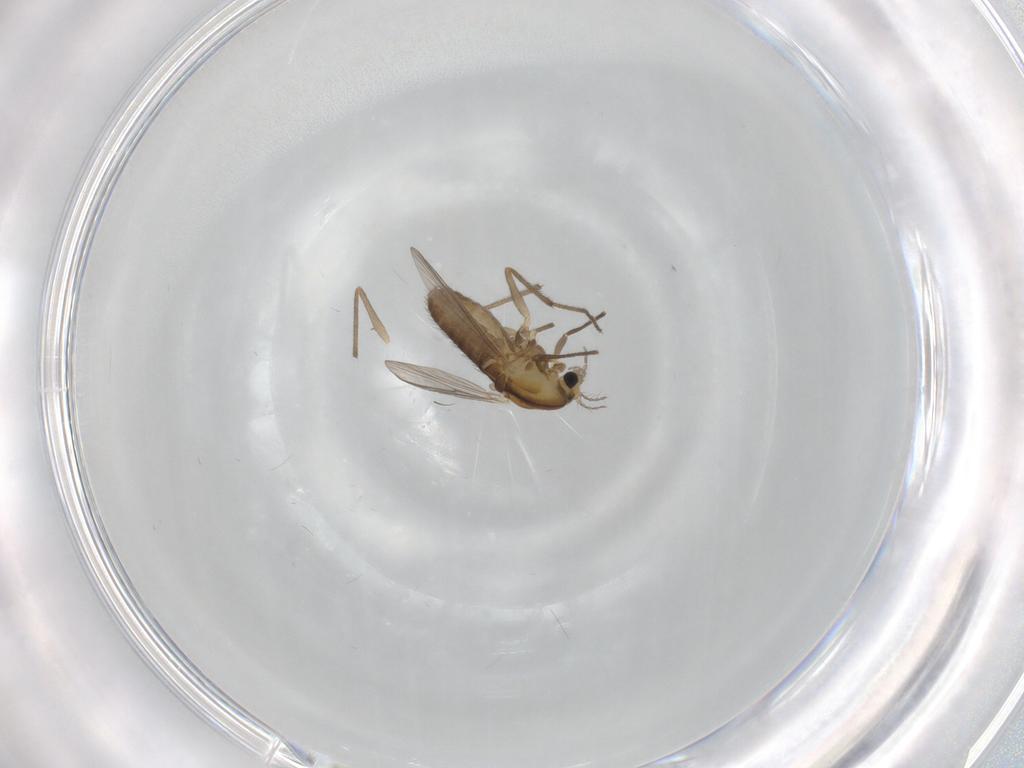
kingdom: Animalia
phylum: Arthropoda
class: Insecta
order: Diptera
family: Chironomidae
